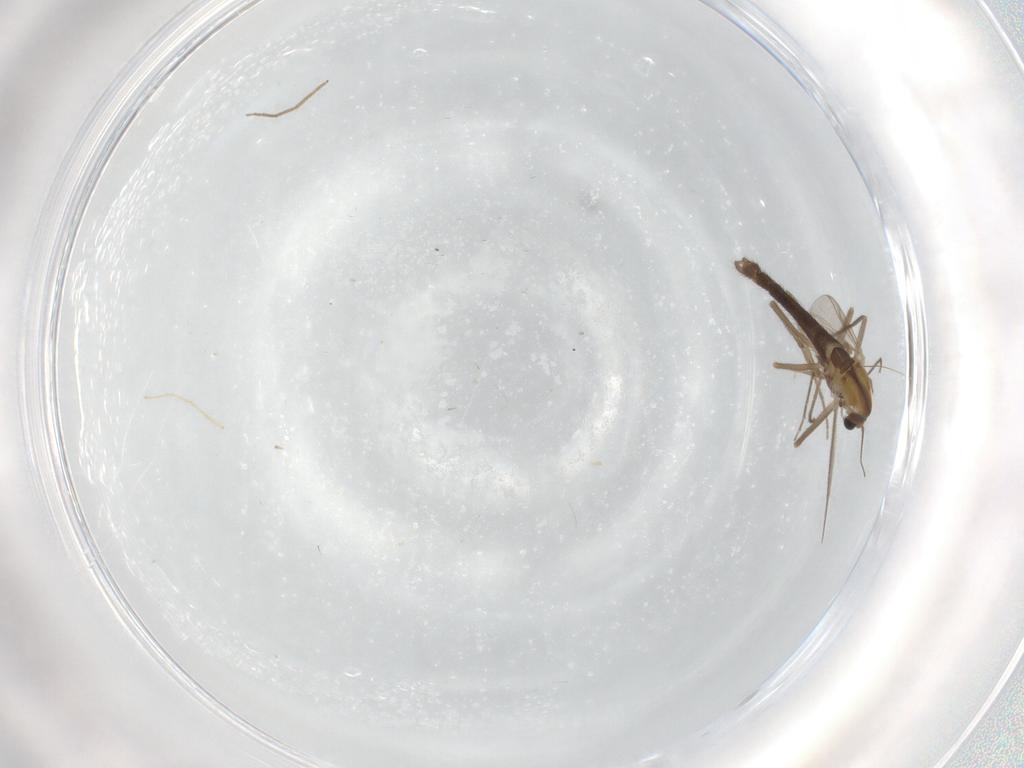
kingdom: Animalia
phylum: Arthropoda
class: Insecta
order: Diptera
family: Chironomidae
